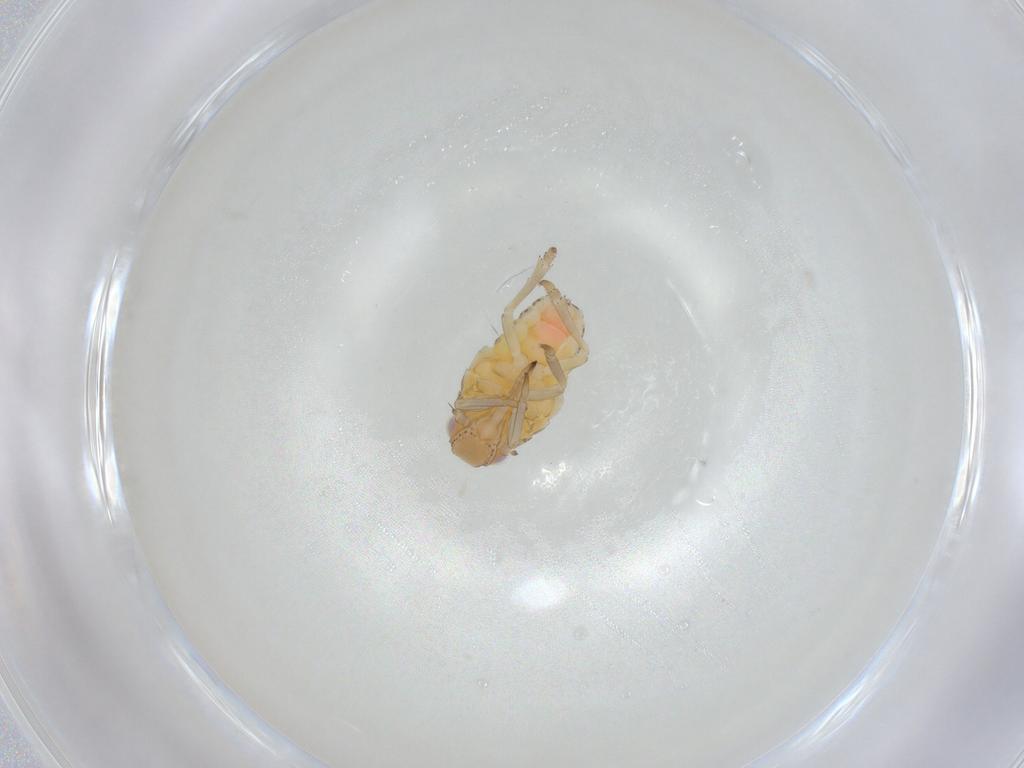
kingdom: Animalia
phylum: Arthropoda
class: Insecta
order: Hemiptera
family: Tropiduchidae
